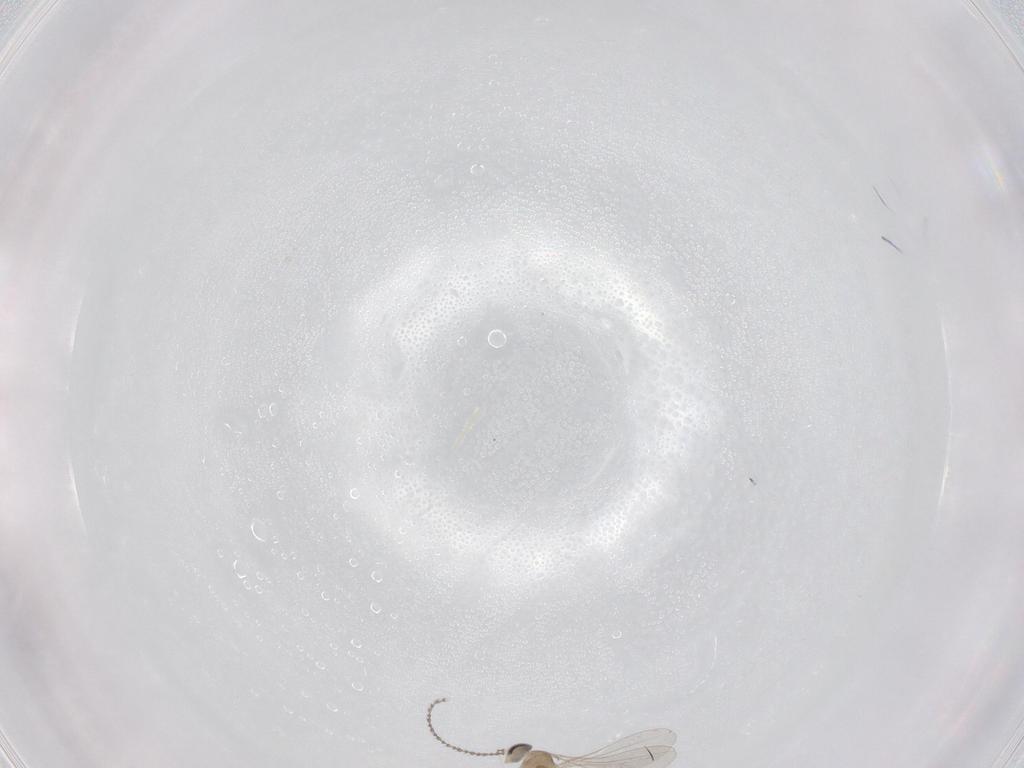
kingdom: Animalia
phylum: Arthropoda
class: Insecta
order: Diptera
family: Cecidomyiidae
